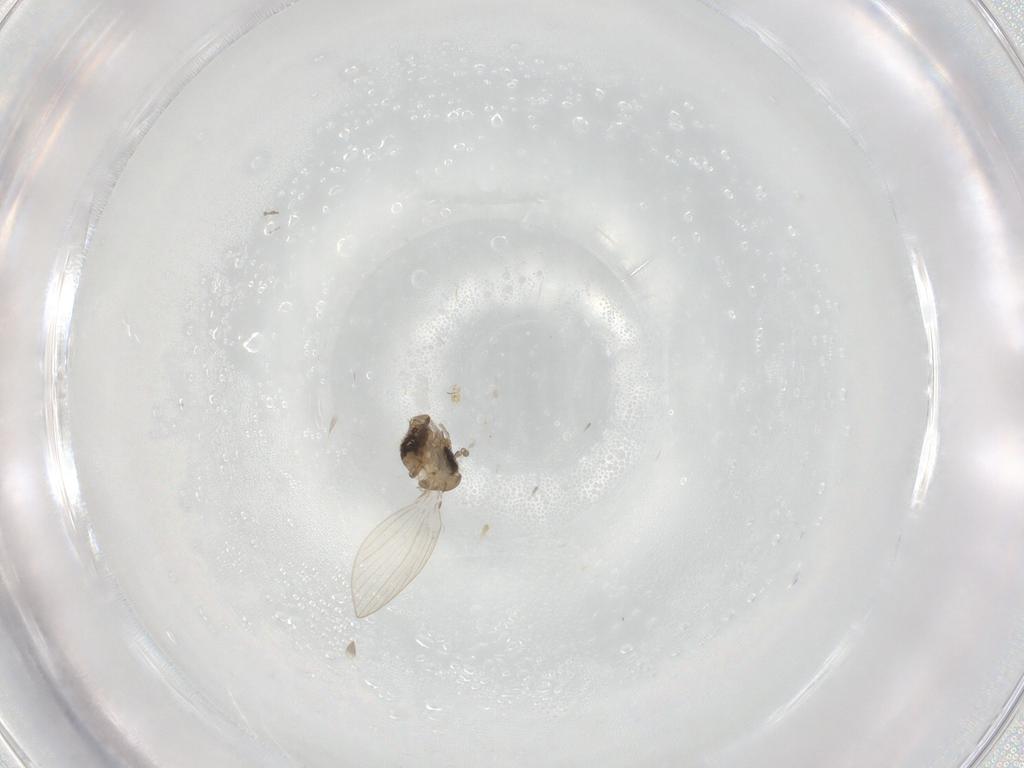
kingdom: Animalia
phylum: Arthropoda
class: Insecta
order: Diptera
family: Psychodidae
